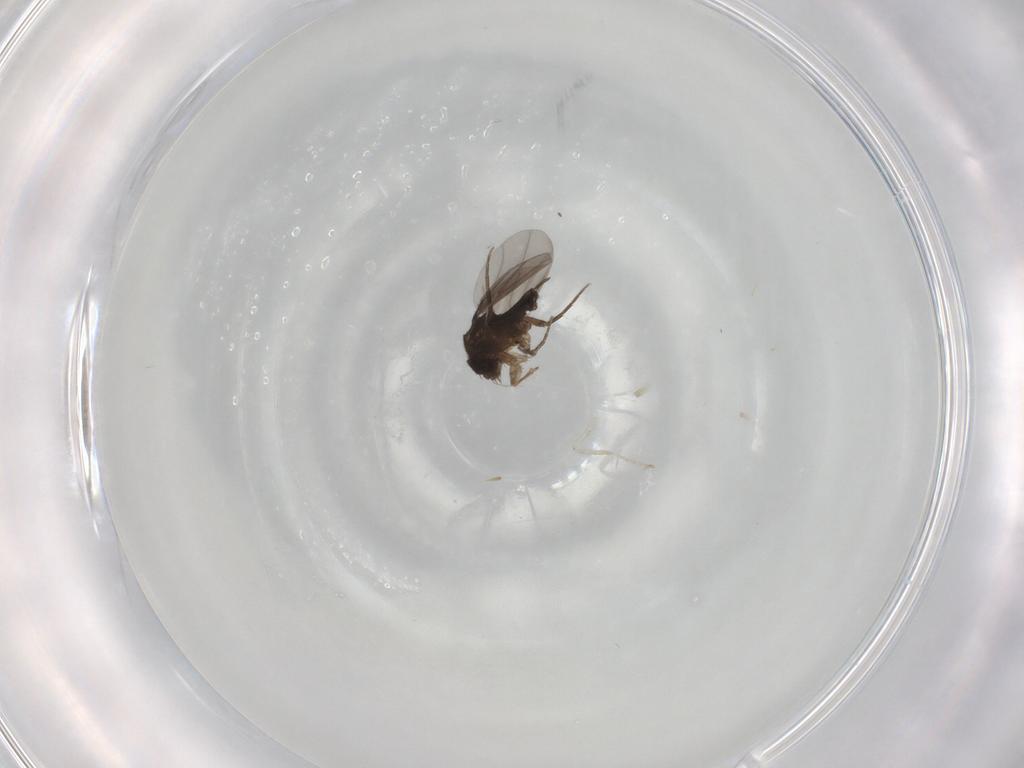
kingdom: Animalia
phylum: Arthropoda
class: Insecta
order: Diptera
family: Phoridae
